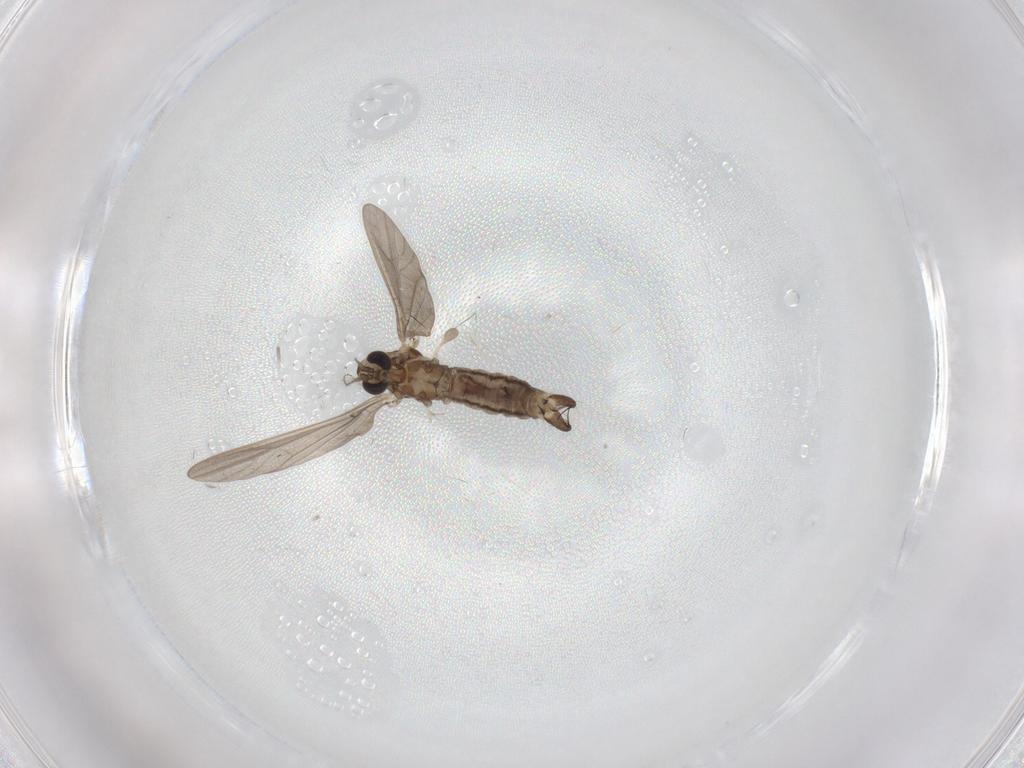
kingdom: Animalia
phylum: Arthropoda
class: Insecta
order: Diptera
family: Limoniidae
